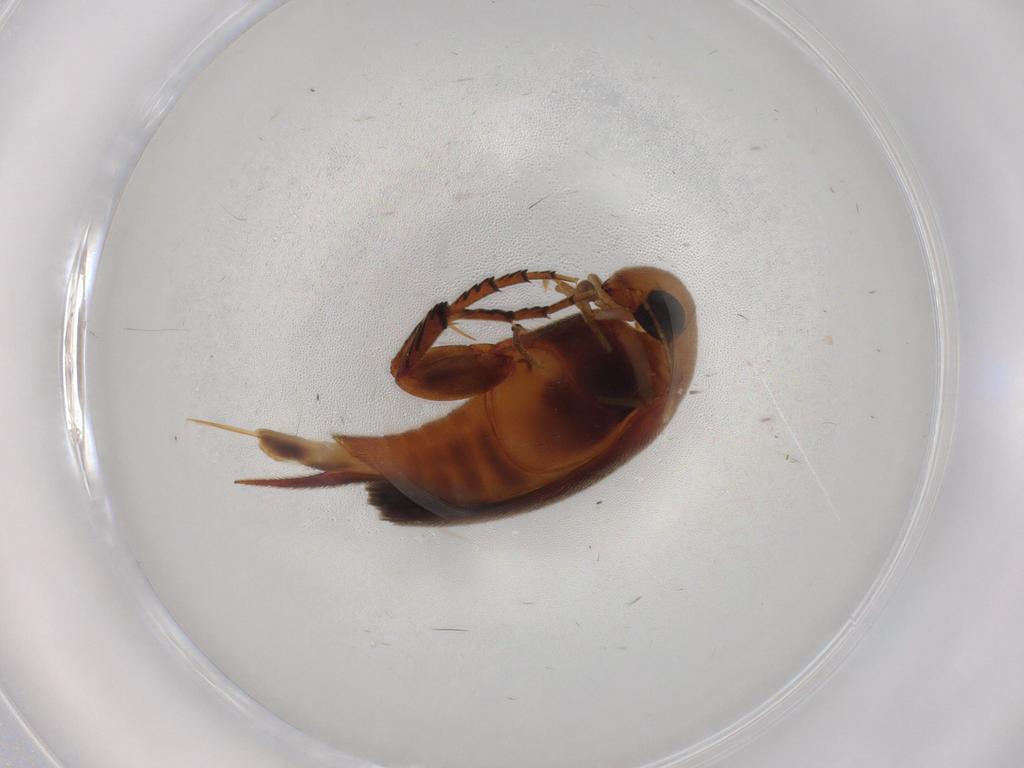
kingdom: Animalia
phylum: Arthropoda
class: Insecta
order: Coleoptera
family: Mordellidae
